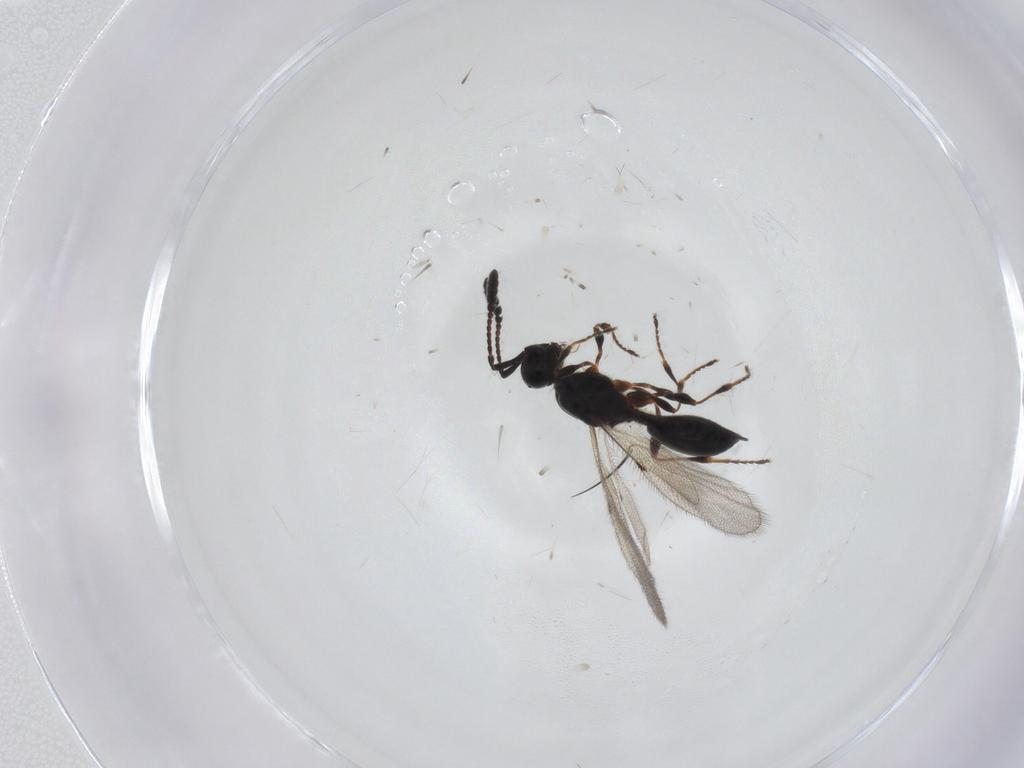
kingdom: Animalia
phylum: Arthropoda
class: Insecta
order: Hymenoptera
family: Diapriidae
